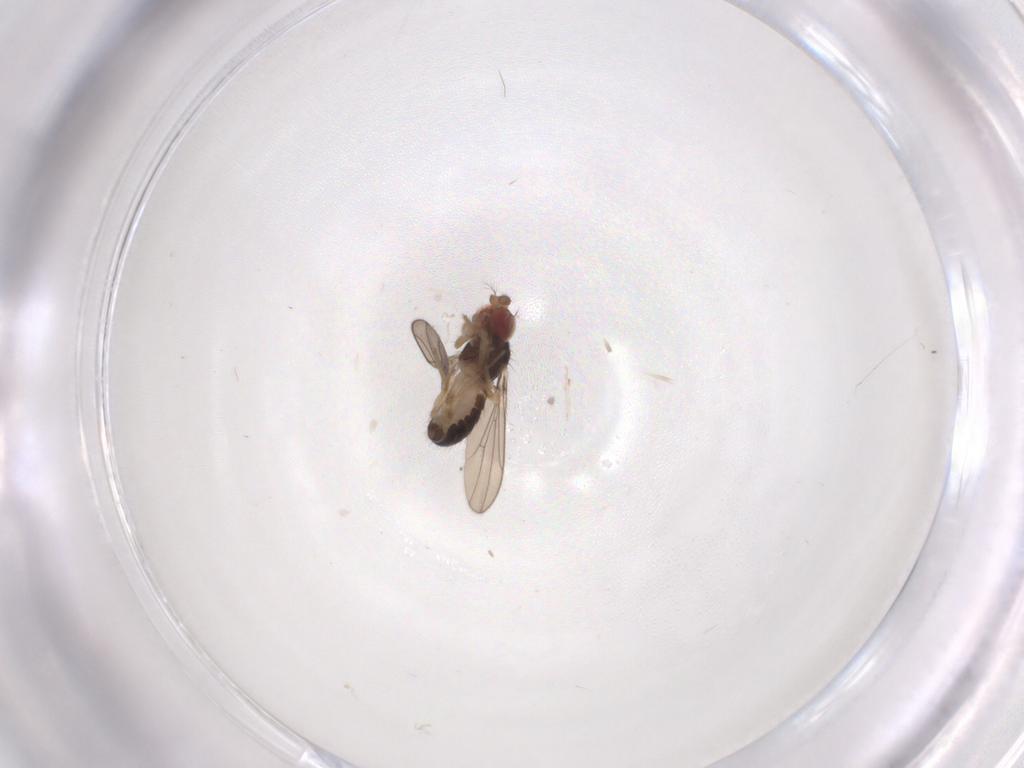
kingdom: Animalia
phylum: Arthropoda
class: Insecta
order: Diptera
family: Drosophilidae
